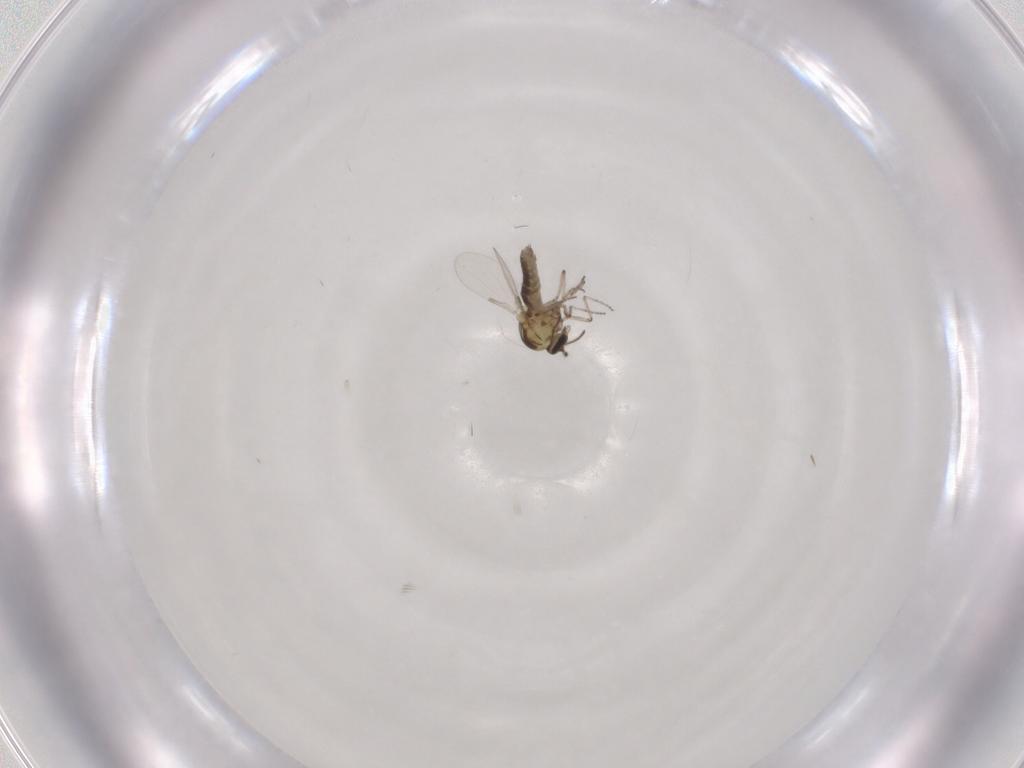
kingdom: Animalia
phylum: Arthropoda
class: Insecta
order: Diptera
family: Ceratopogonidae
